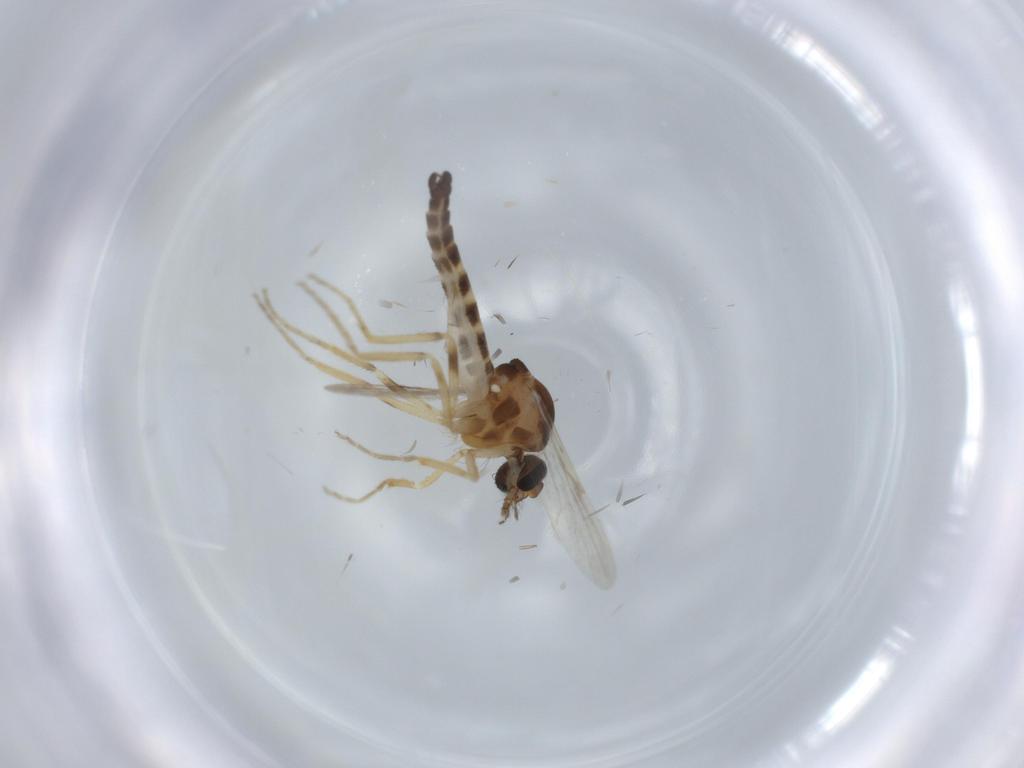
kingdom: Animalia
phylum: Arthropoda
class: Insecta
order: Diptera
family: Ceratopogonidae
